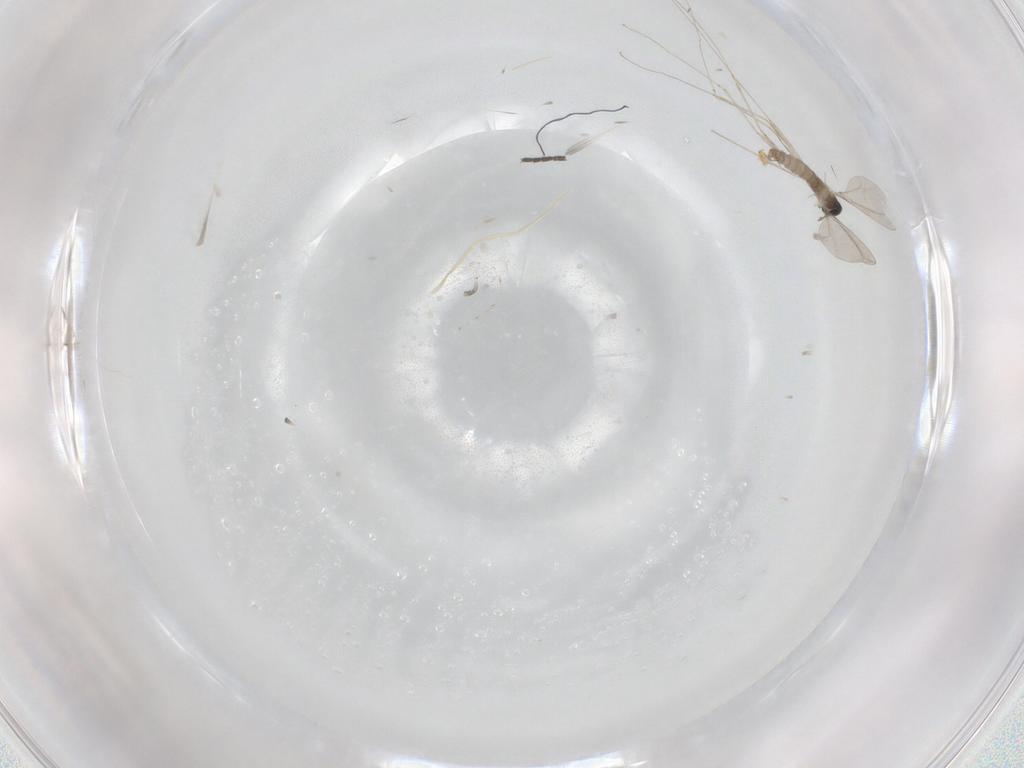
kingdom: Animalia
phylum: Arthropoda
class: Insecta
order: Diptera
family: Cecidomyiidae
